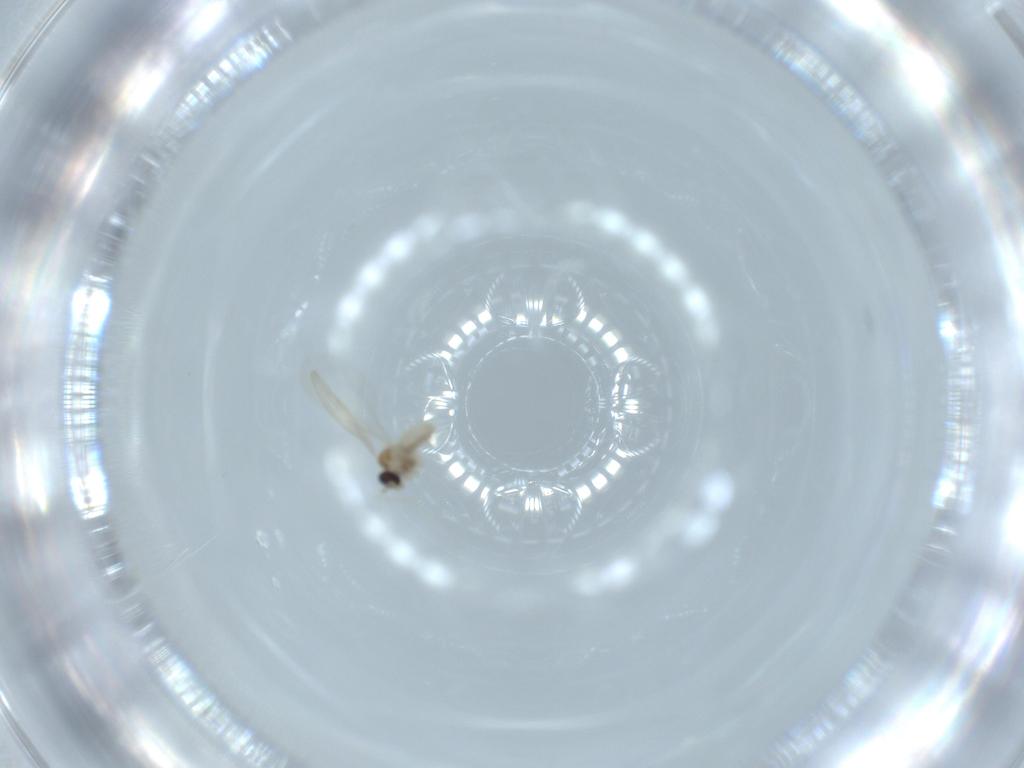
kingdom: Animalia
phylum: Arthropoda
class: Insecta
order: Diptera
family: Cecidomyiidae
